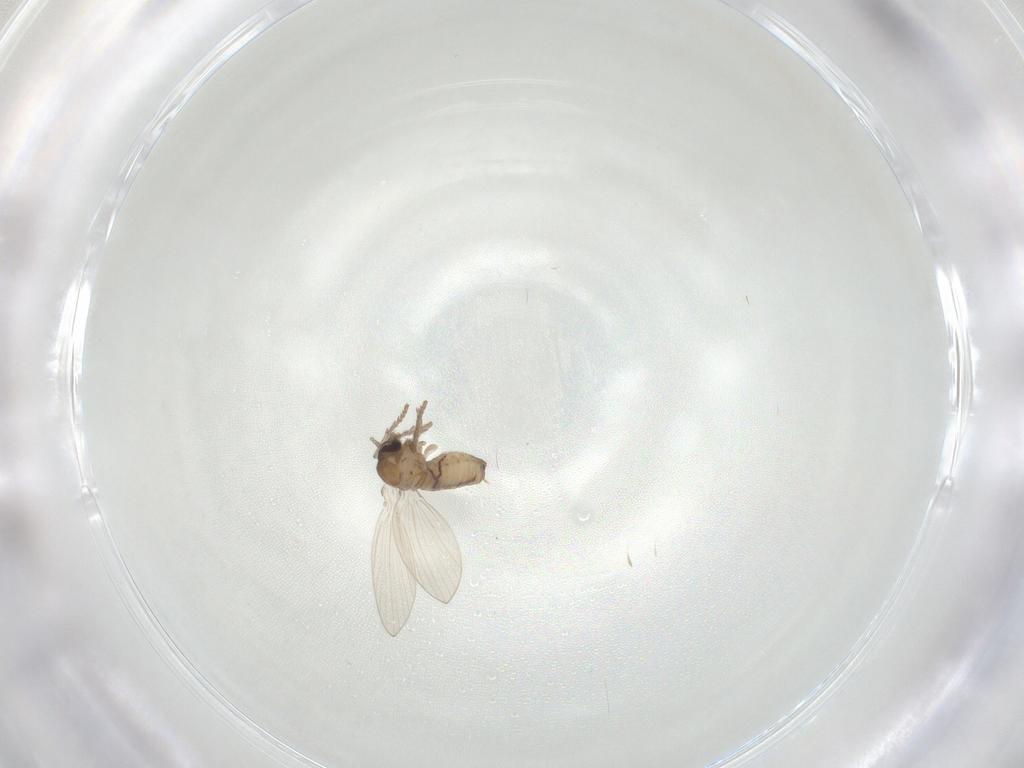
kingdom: Animalia
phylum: Arthropoda
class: Insecta
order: Diptera
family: Psychodidae
